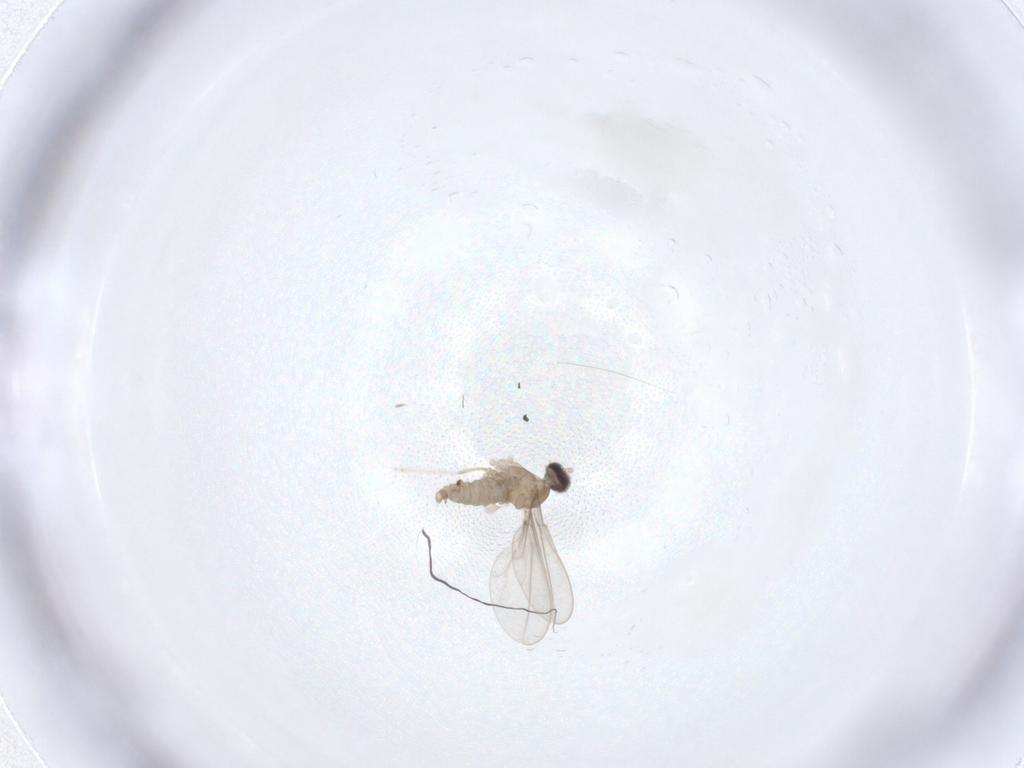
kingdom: Animalia
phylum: Arthropoda
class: Insecta
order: Diptera
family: Cecidomyiidae
